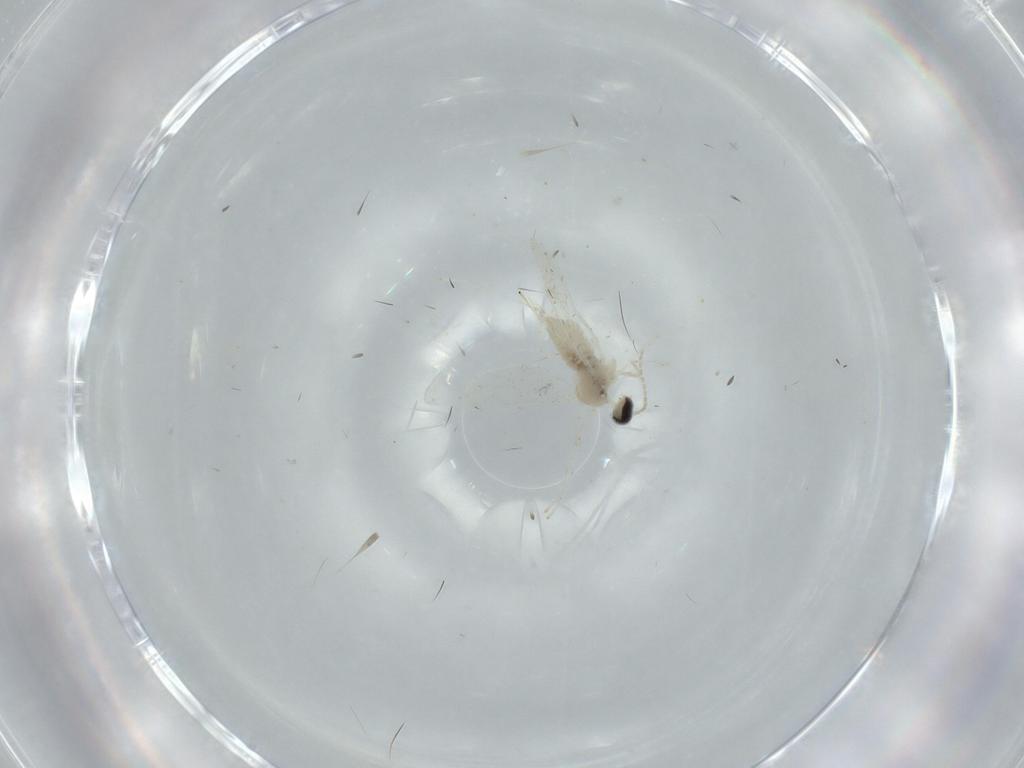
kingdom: Animalia
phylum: Arthropoda
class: Insecta
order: Diptera
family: Cecidomyiidae
